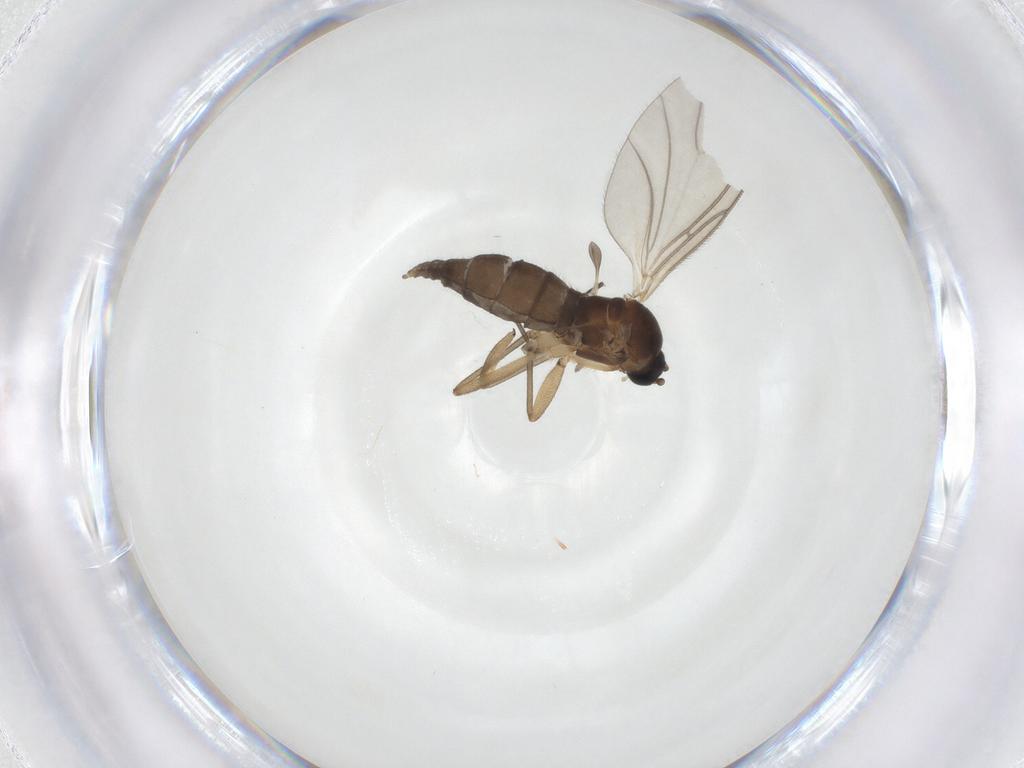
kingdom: Animalia
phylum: Arthropoda
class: Insecta
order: Diptera
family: Sciaridae
